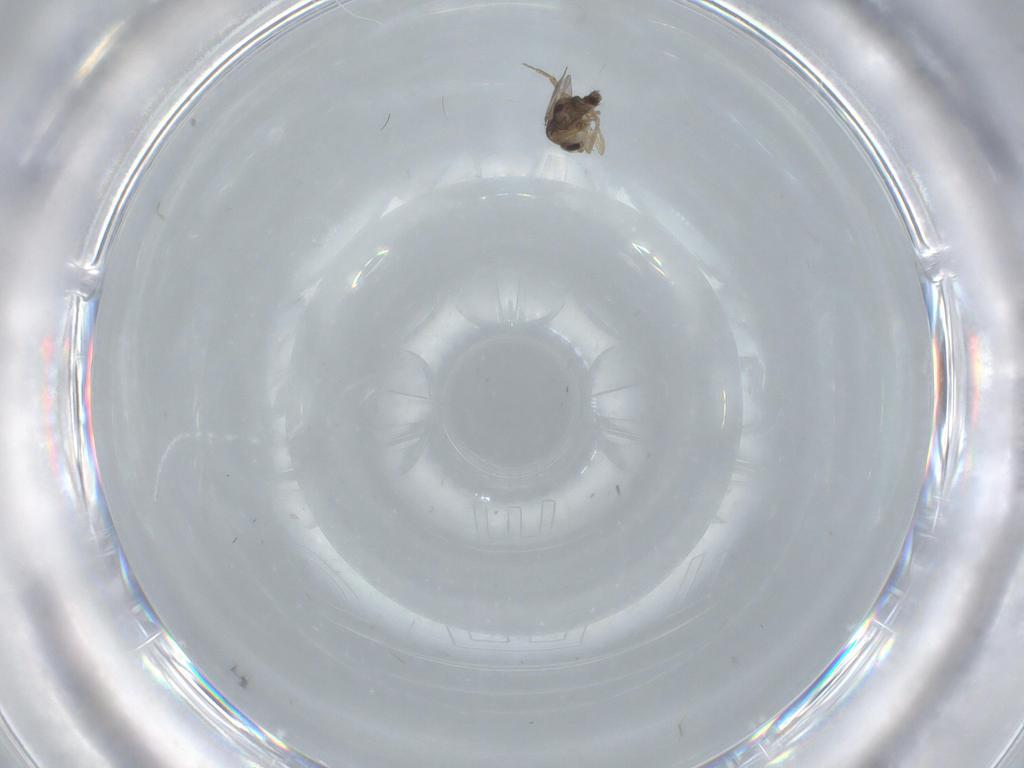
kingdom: Animalia
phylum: Arthropoda
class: Insecta
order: Diptera
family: Phoridae
